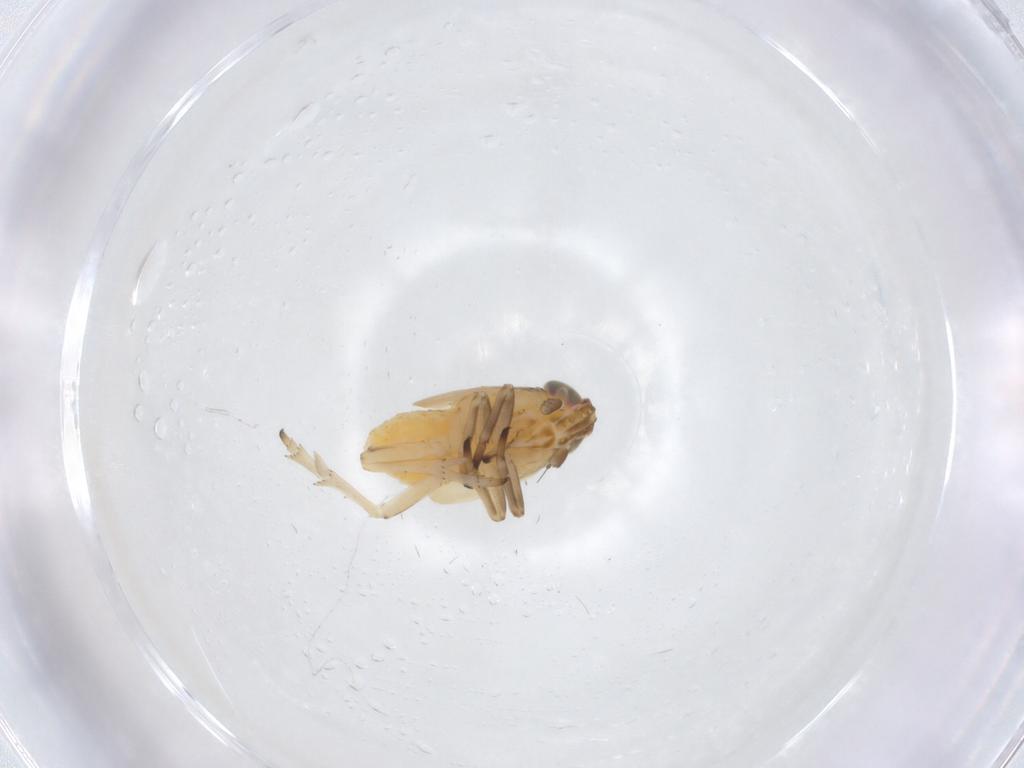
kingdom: Animalia
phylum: Arthropoda
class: Insecta
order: Hemiptera
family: Delphacidae
